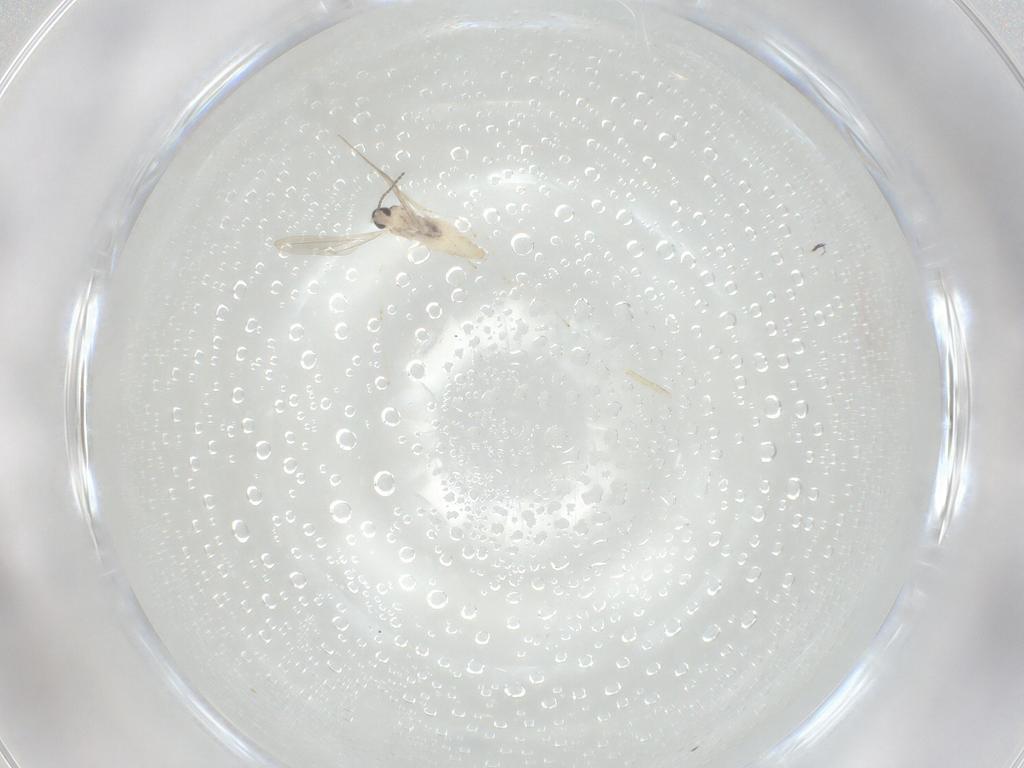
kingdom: Animalia
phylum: Arthropoda
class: Insecta
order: Diptera
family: Cecidomyiidae
